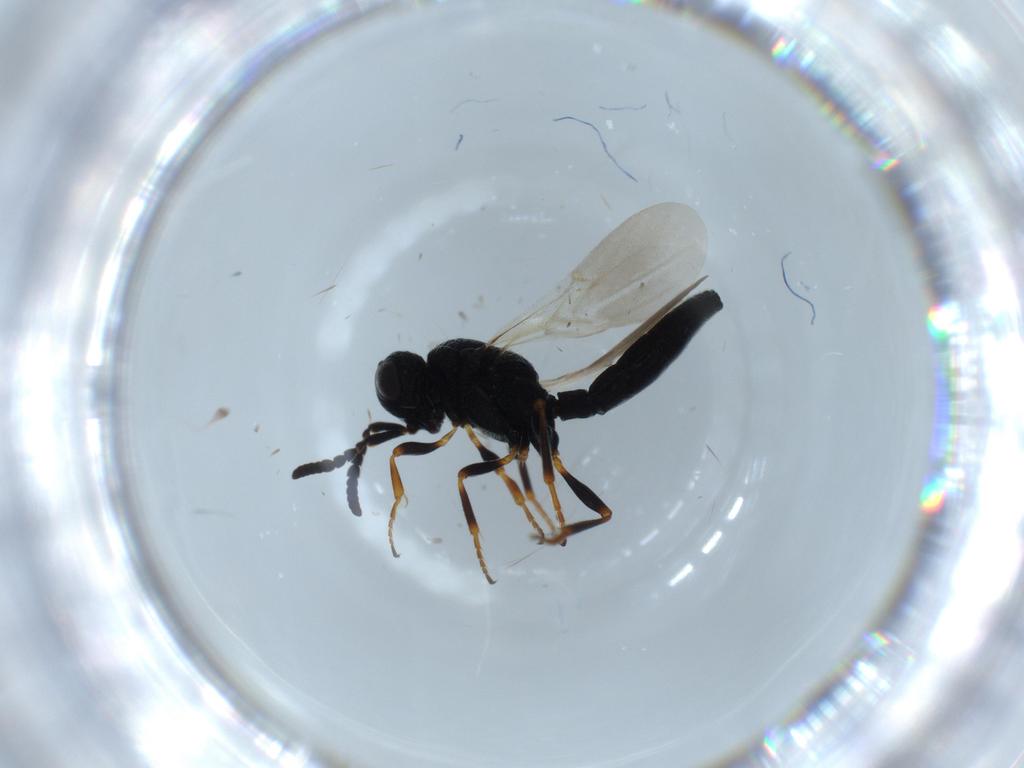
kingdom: Animalia
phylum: Arthropoda
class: Insecta
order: Hymenoptera
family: Scelionidae
